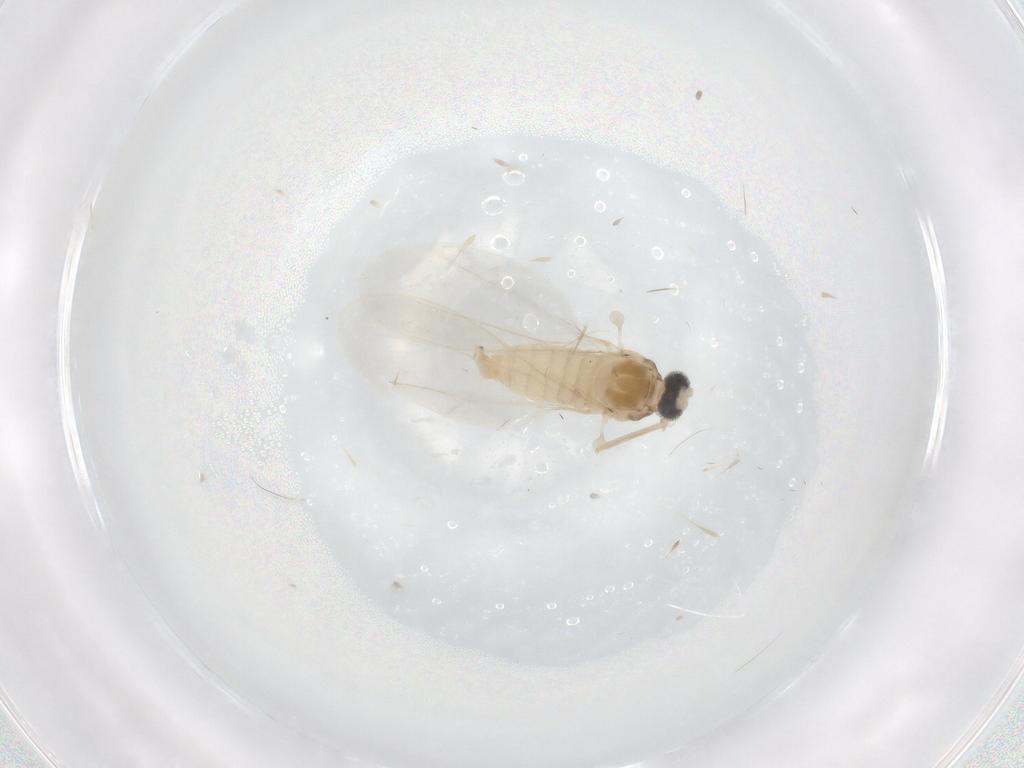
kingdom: Animalia
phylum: Arthropoda
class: Insecta
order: Diptera
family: Cecidomyiidae
